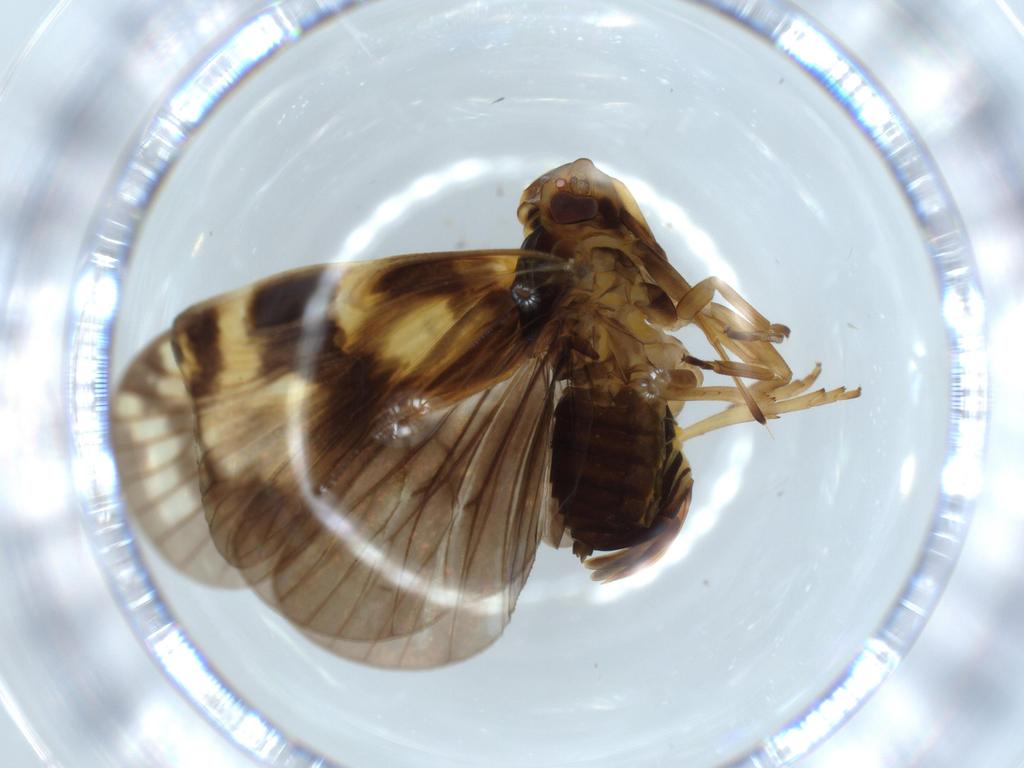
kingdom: Animalia
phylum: Arthropoda
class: Insecta
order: Hemiptera
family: Cixiidae
